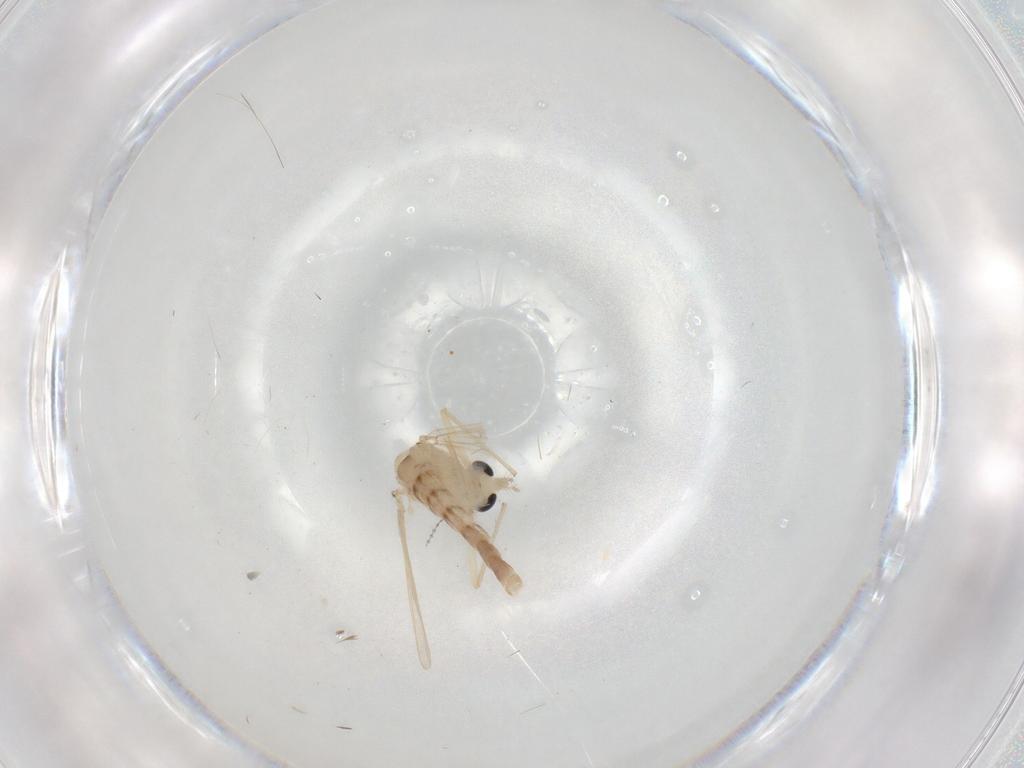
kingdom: Animalia
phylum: Arthropoda
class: Insecta
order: Diptera
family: Chironomidae
